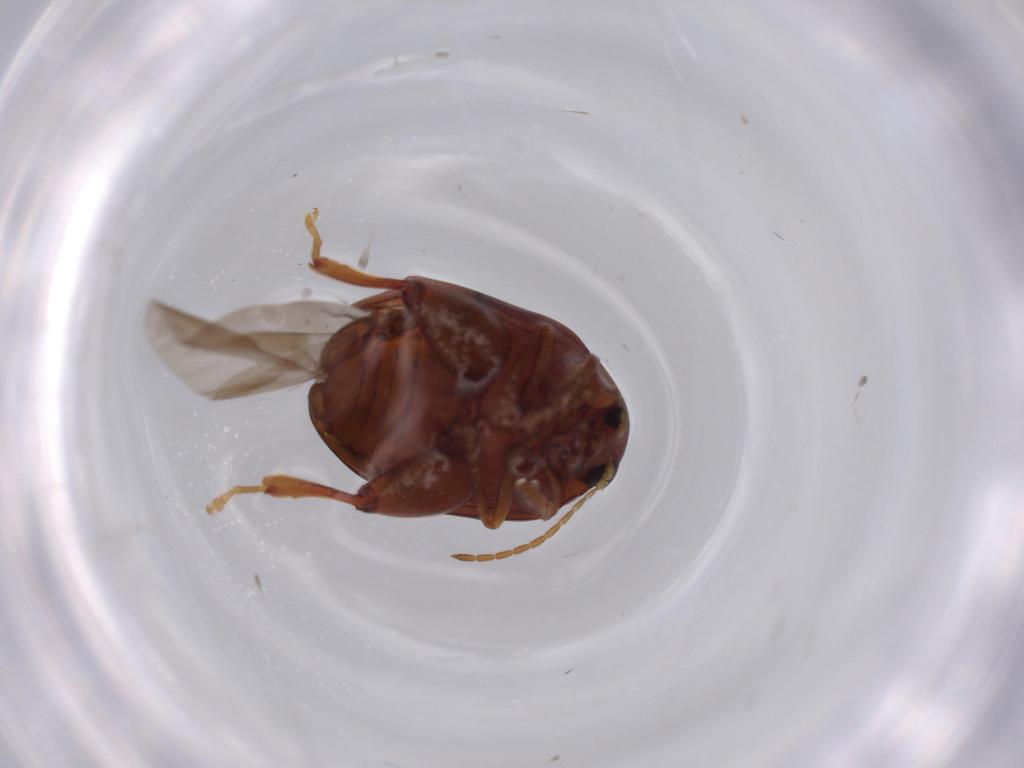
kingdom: Animalia
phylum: Arthropoda
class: Insecta
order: Coleoptera
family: Chrysomelidae
